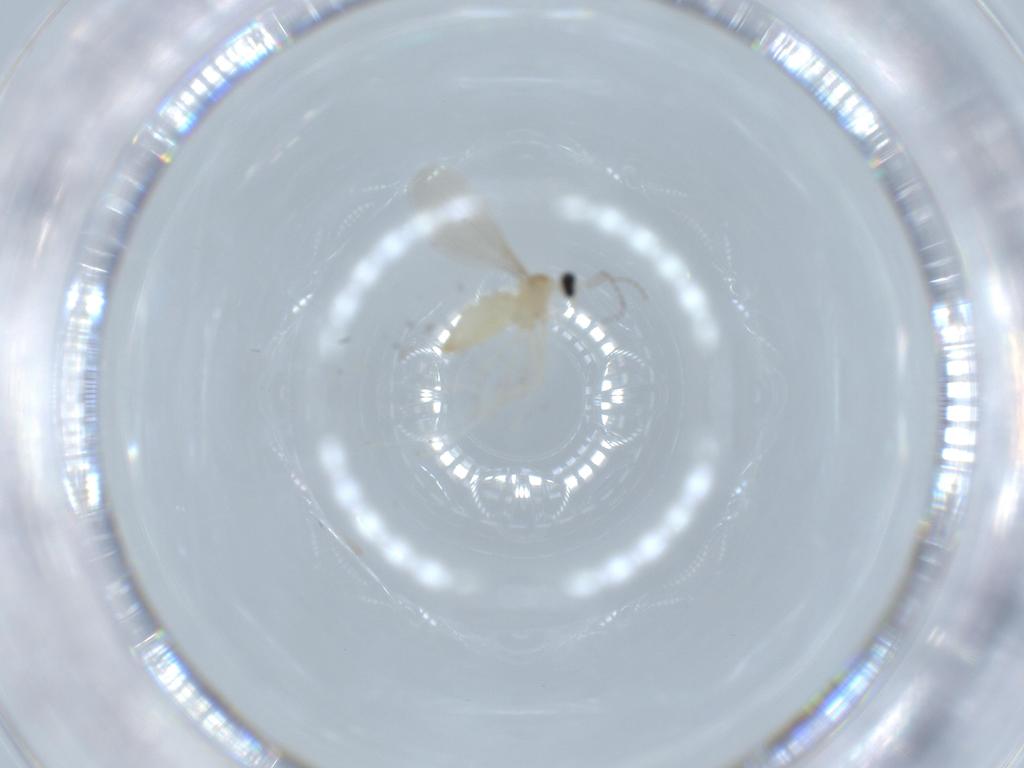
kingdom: Animalia
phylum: Arthropoda
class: Insecta
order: Diptera
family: Cecidomyiidae
